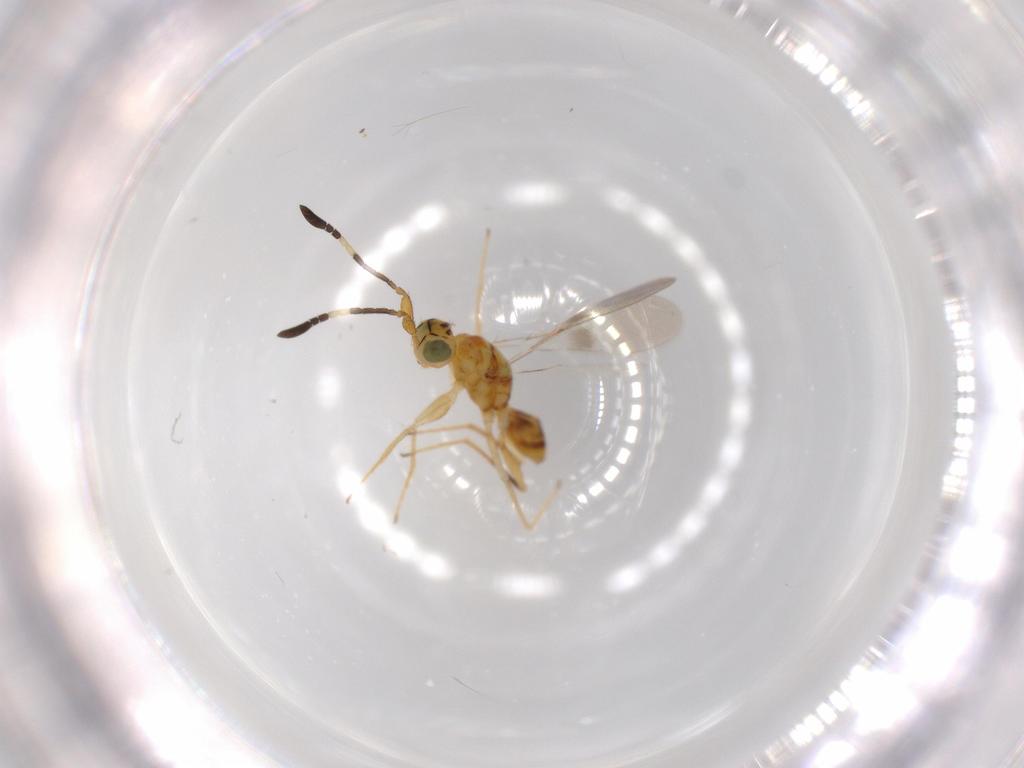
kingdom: Animalia
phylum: Arthropoda
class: Insecta
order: Hymenoptera
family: Mymaridae
